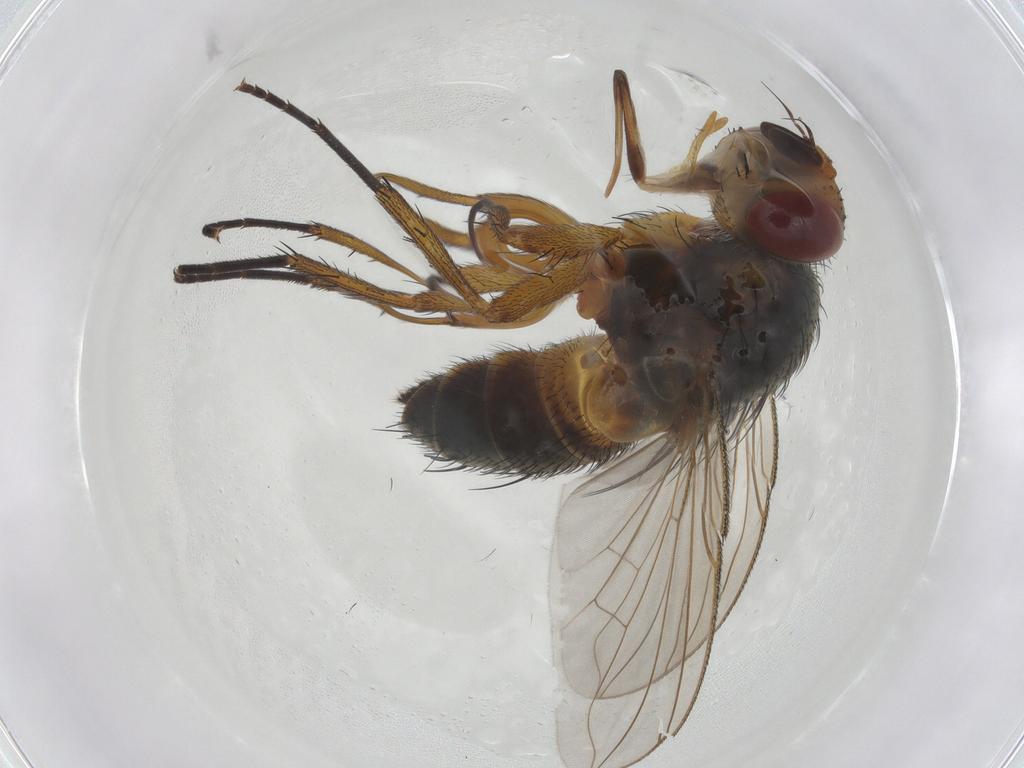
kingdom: Animalia
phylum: Arthropoda
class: Insecta
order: Diptera
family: Tachinidae
